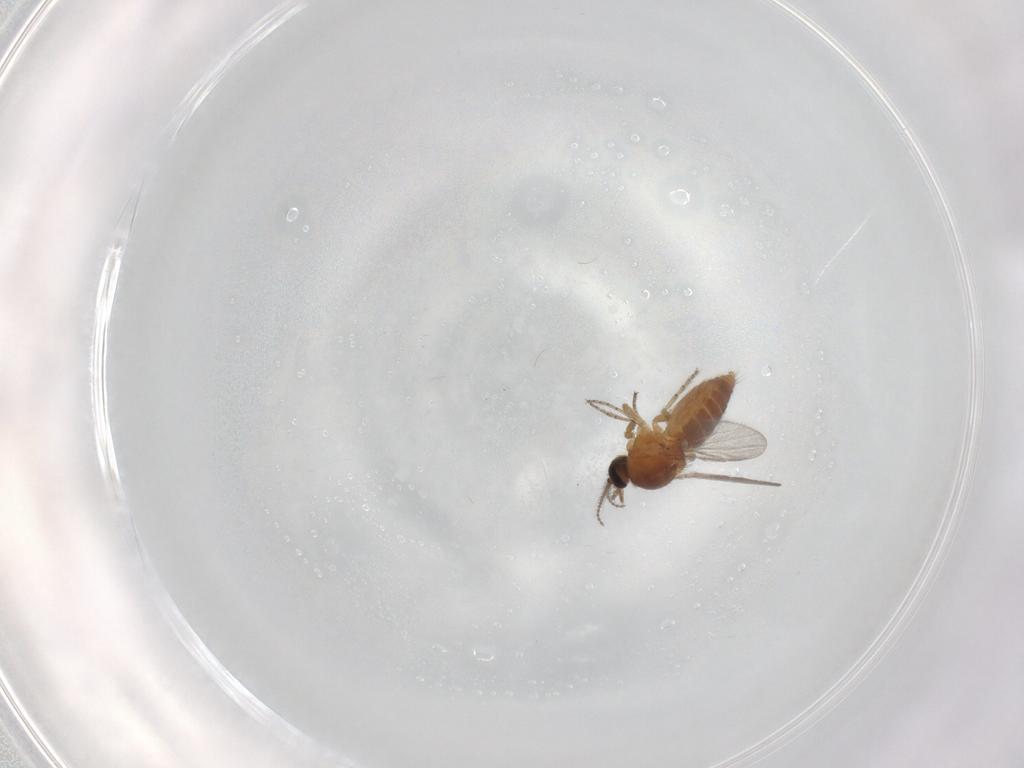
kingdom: Animalia
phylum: Arthropoda
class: Insecta
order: Diptera
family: Ceratopogonidae
